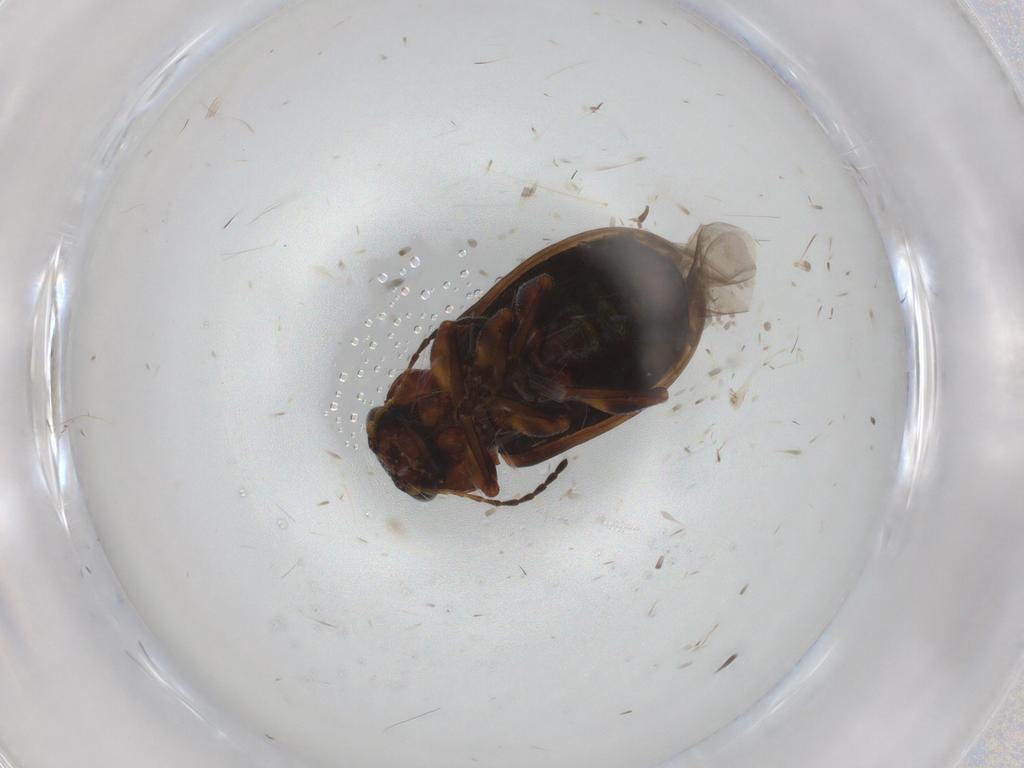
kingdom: Animalia
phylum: Arthropoda
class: Insecta
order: Coleoptera
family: Chrysomelidae
